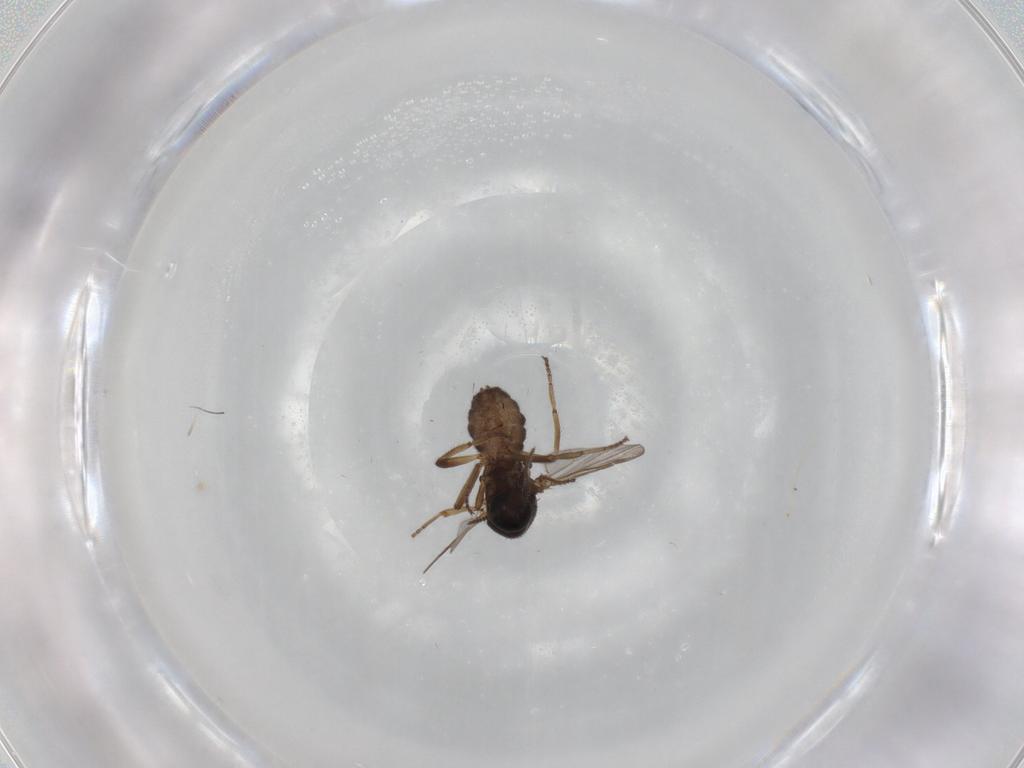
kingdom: Animalia
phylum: Arthropoda
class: Insecta
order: Diptera
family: Ceratopogonidae
